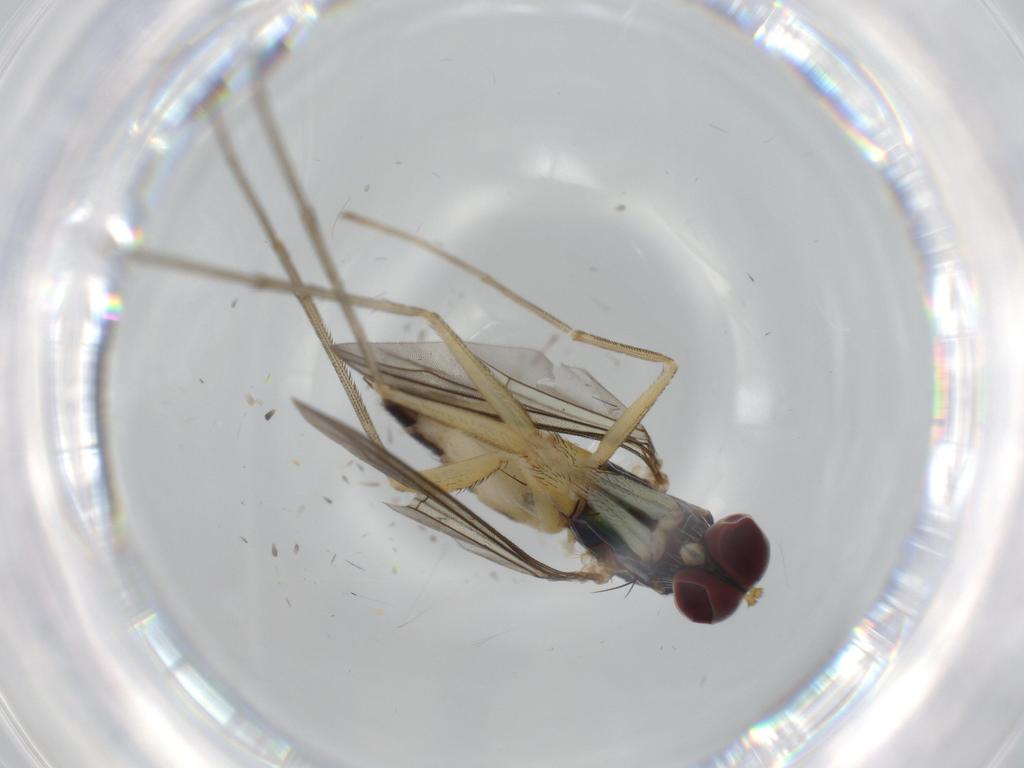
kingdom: Animalia
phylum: Arthropoda
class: Insecta
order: Diptera
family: Dolichopodidae
